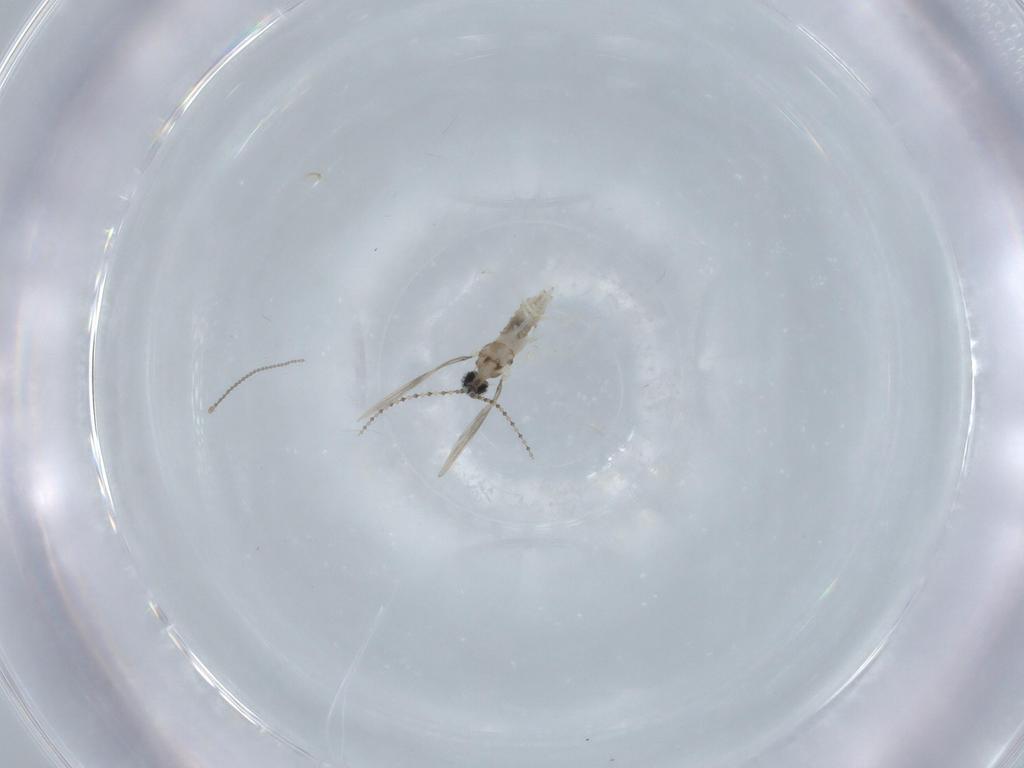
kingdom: Animalia
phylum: Arthropoda
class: Insecta
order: Diptera
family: Cecidomyiidae
